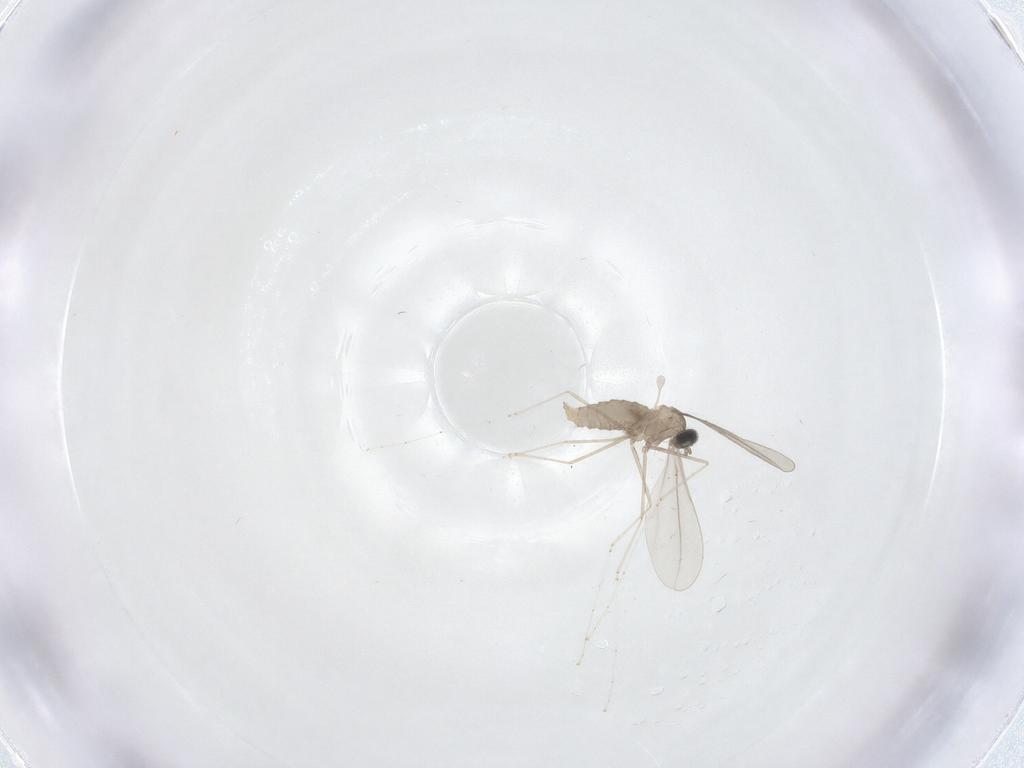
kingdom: Animalia
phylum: Arthropoda
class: Insecta
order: Diptera
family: Cecidomyiidae
